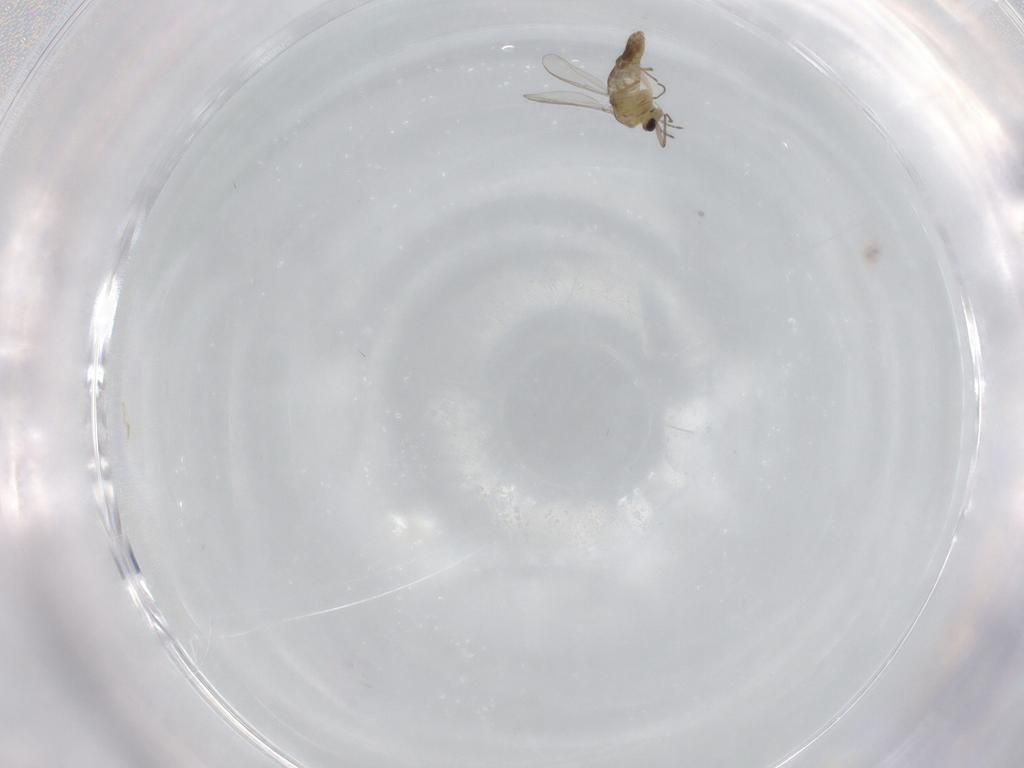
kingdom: Animalia
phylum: Arthropoda
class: Insecta
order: Diptera
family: Chironomidae
